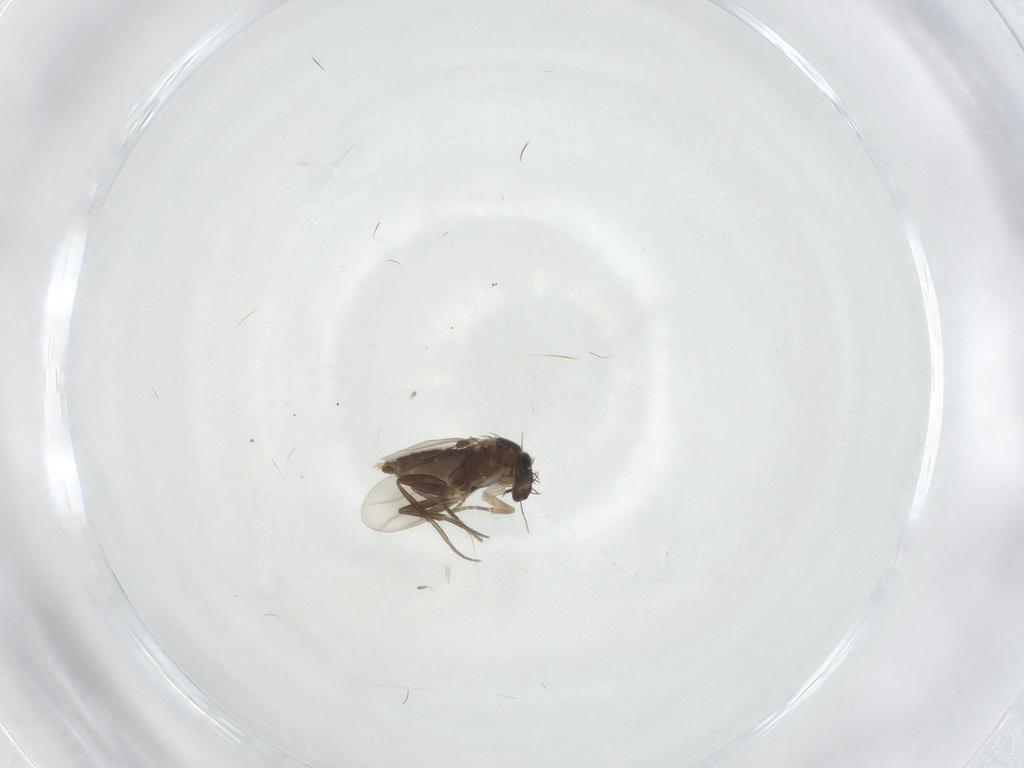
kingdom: Animalia
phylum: Arthropoda
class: Insecta
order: Diptera
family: Phoridae
